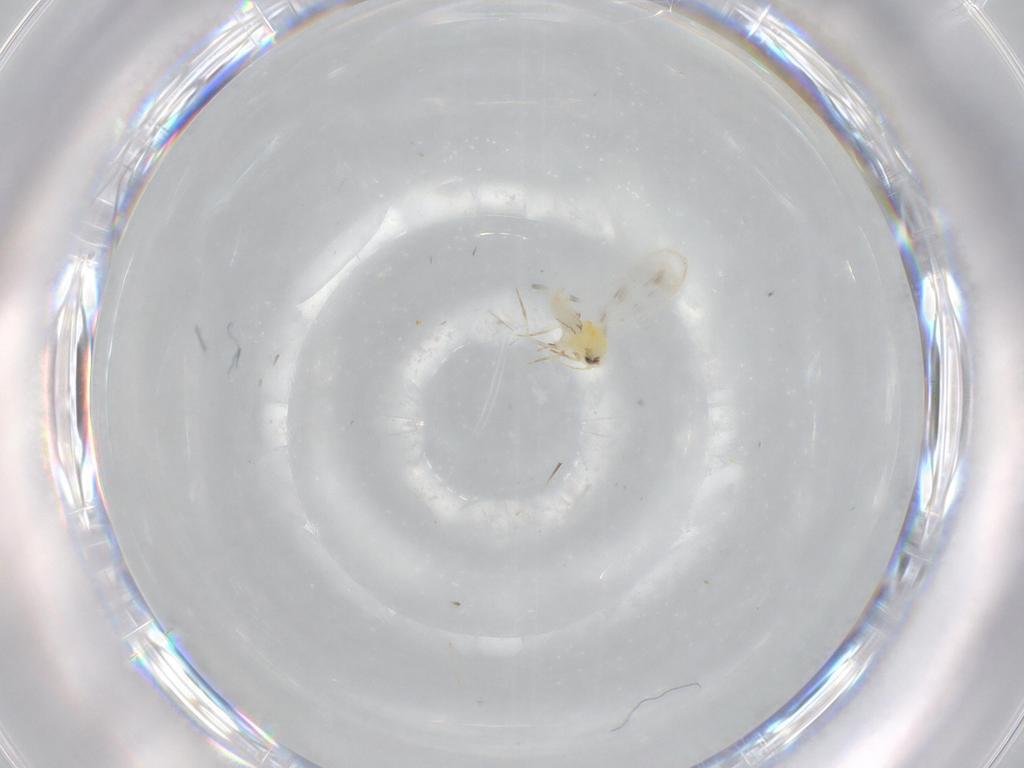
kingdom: Animalia
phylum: Arthropoda
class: Insecta
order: Hemiptera
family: Aleyrodidae
